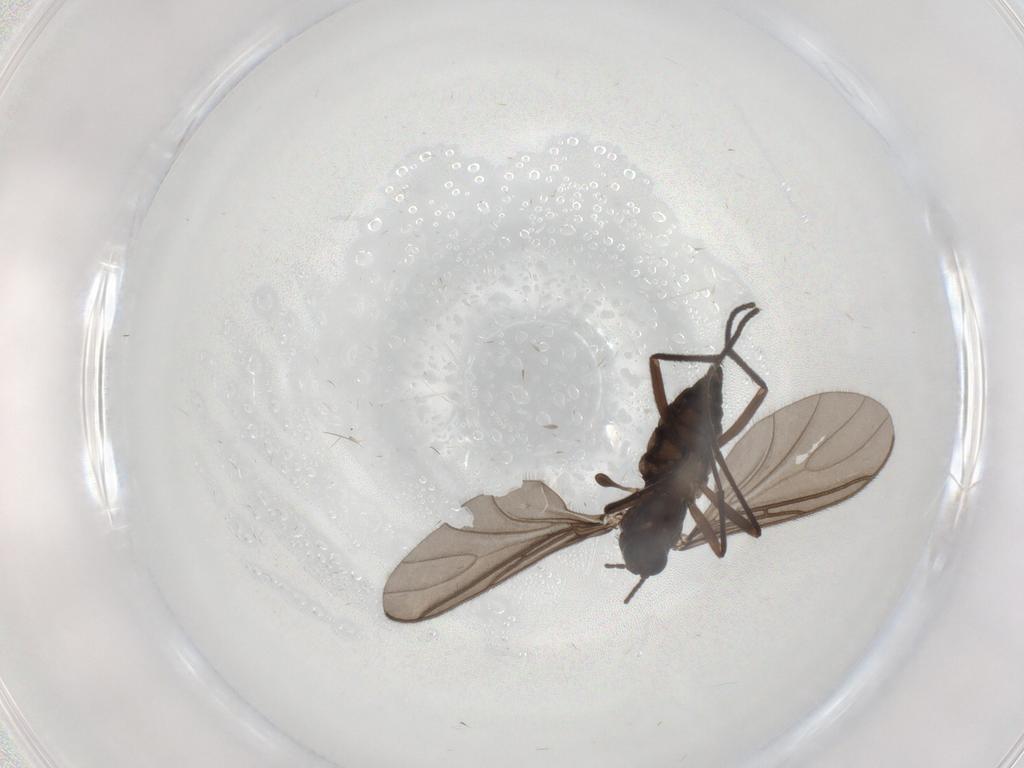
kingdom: Animalia
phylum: Arthropoda
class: Insecta
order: Diptera
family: Sciaridae
